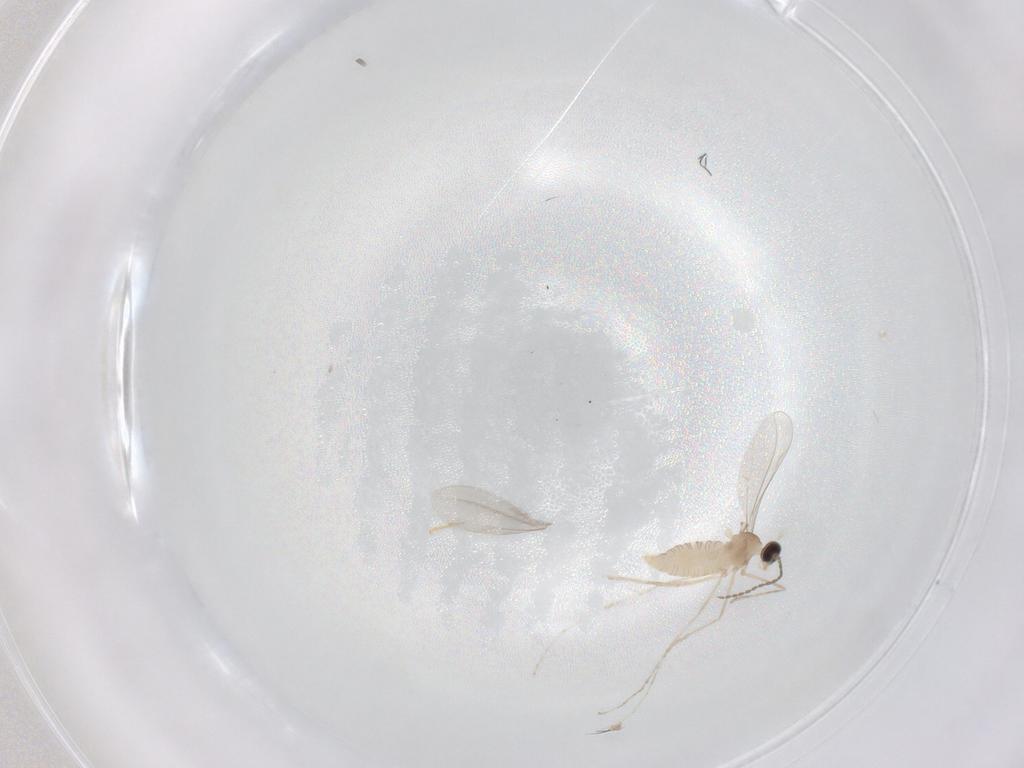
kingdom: Animalia
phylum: Arthropoda
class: Insecta
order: Diptera
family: Cecidomyiidae
